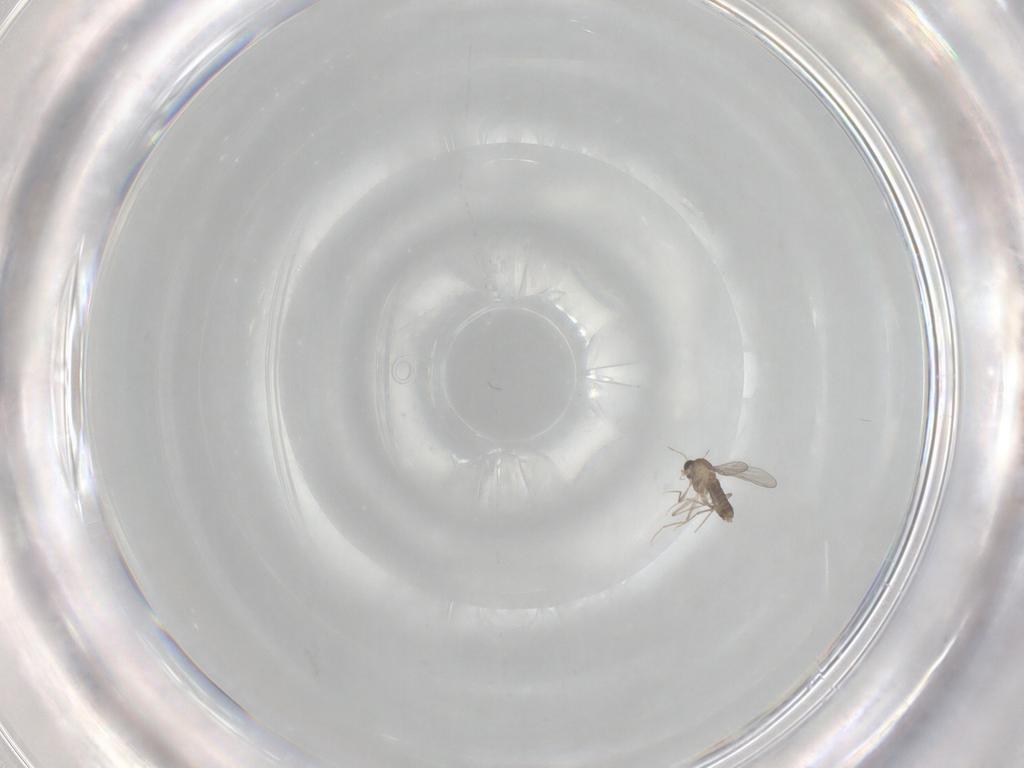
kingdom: Animalia
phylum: Arthropoda
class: Insecta
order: Diptera
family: Chironomidae
